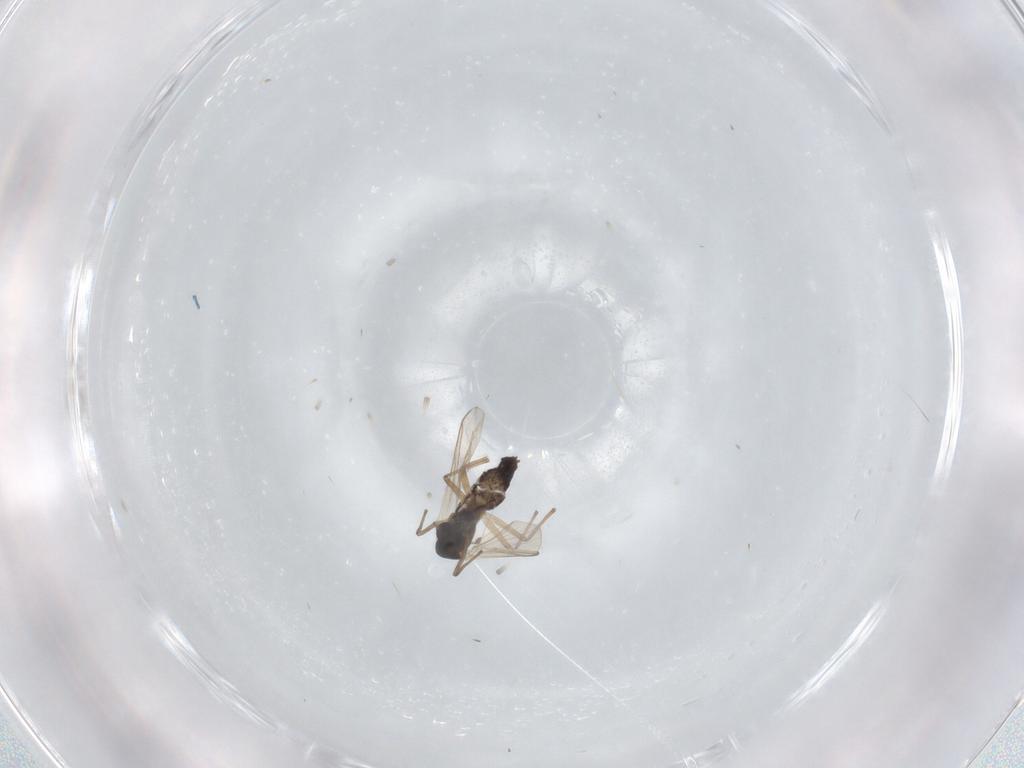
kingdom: Animalia
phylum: Arthropoda
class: Insecta
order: Diptera
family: Chironomidae
